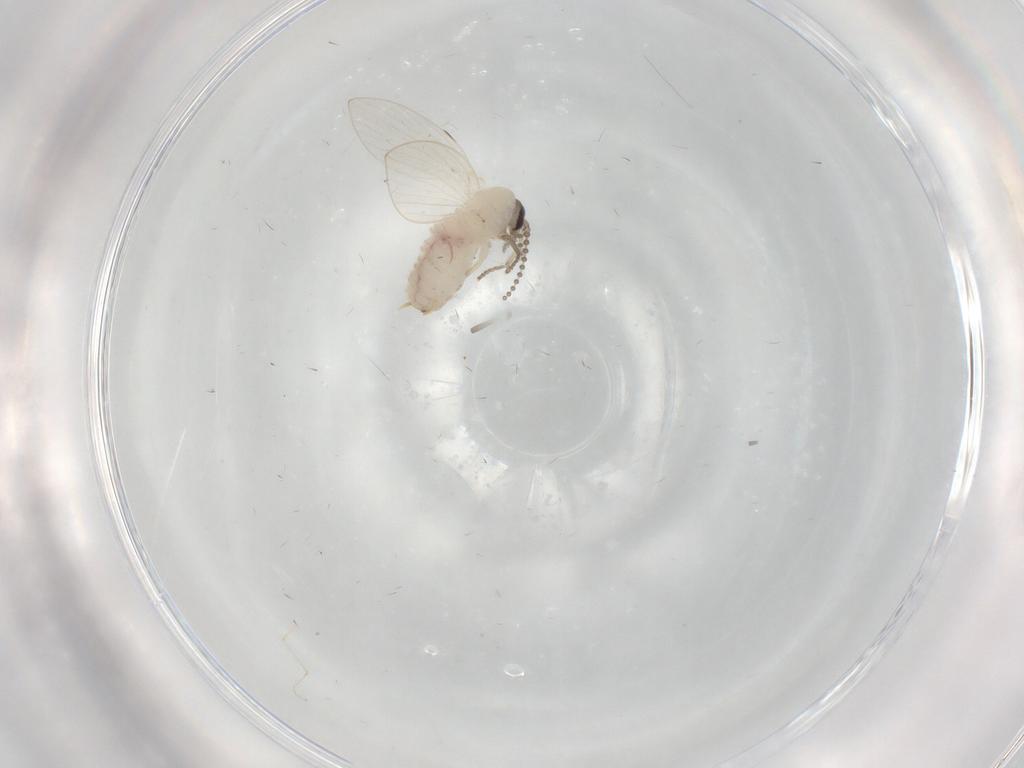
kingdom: Animalia
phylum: Arthropoda
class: Insecta
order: Diptera
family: Psychodidae
